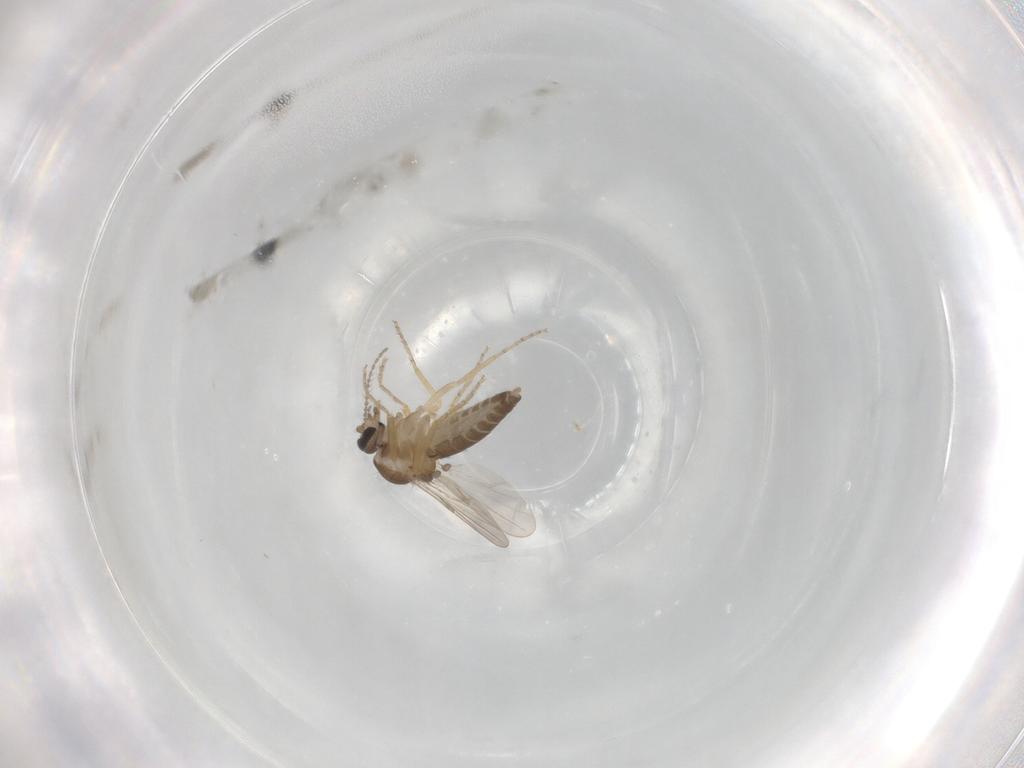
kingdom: Animalia
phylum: Arthropoda
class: Insecta
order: Diptera
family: Ceratopogonidae
